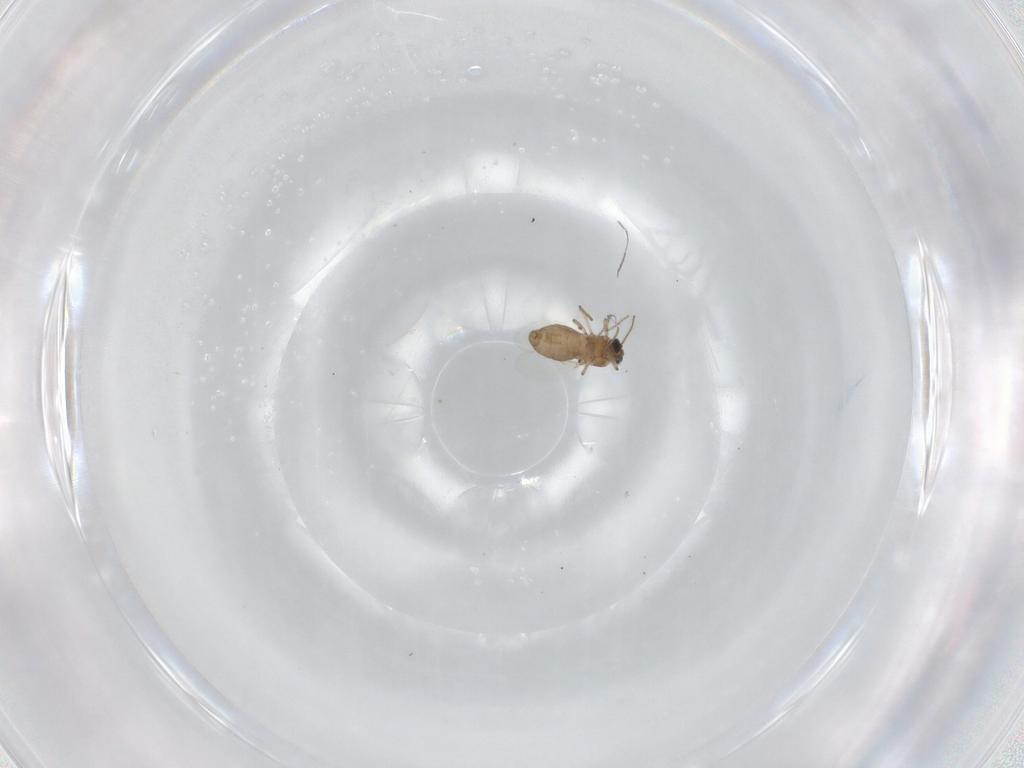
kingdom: Animalia
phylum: Arthropoda
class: Insecta
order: Diptera
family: Ceratopogonidae
